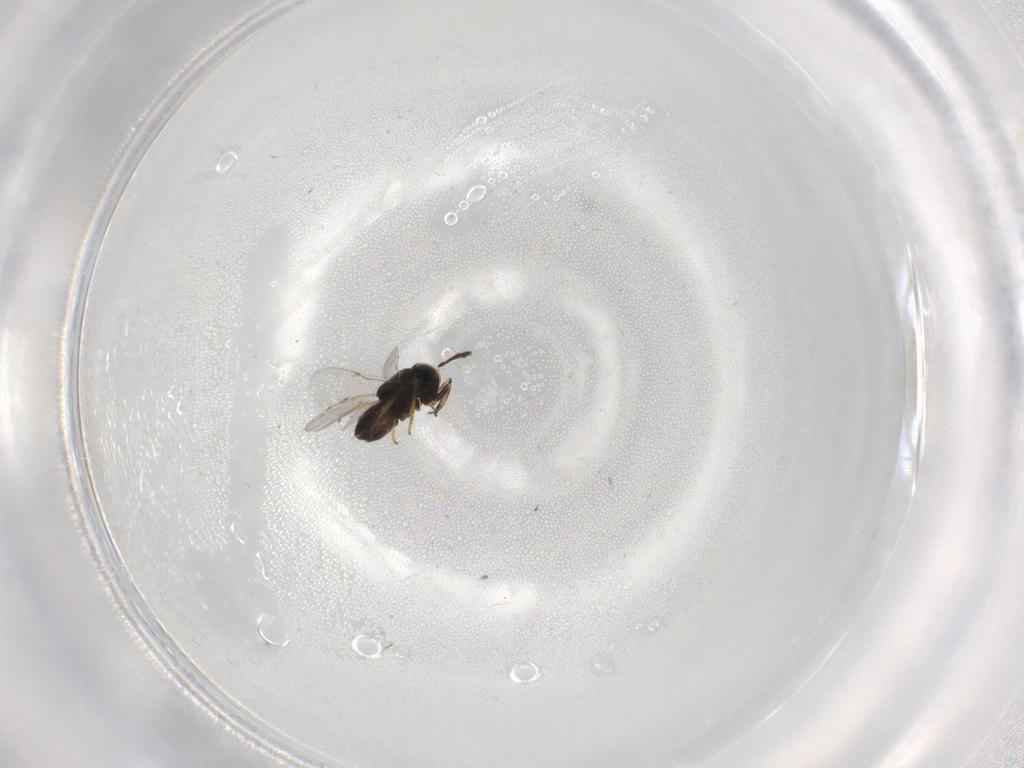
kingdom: Animalia
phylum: Arthropoda
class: Insecta
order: Hymenoptera
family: Encyrtidae
